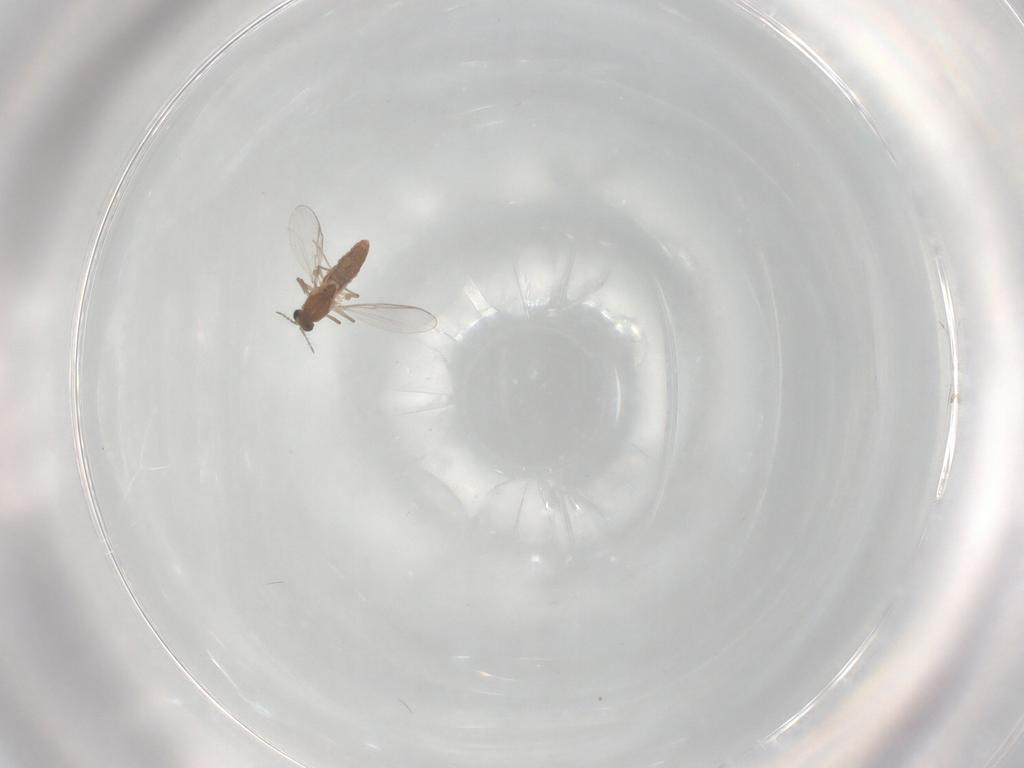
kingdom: Animalia
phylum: Arthropoda
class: Insecta
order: Diptera
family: Chironomidae
